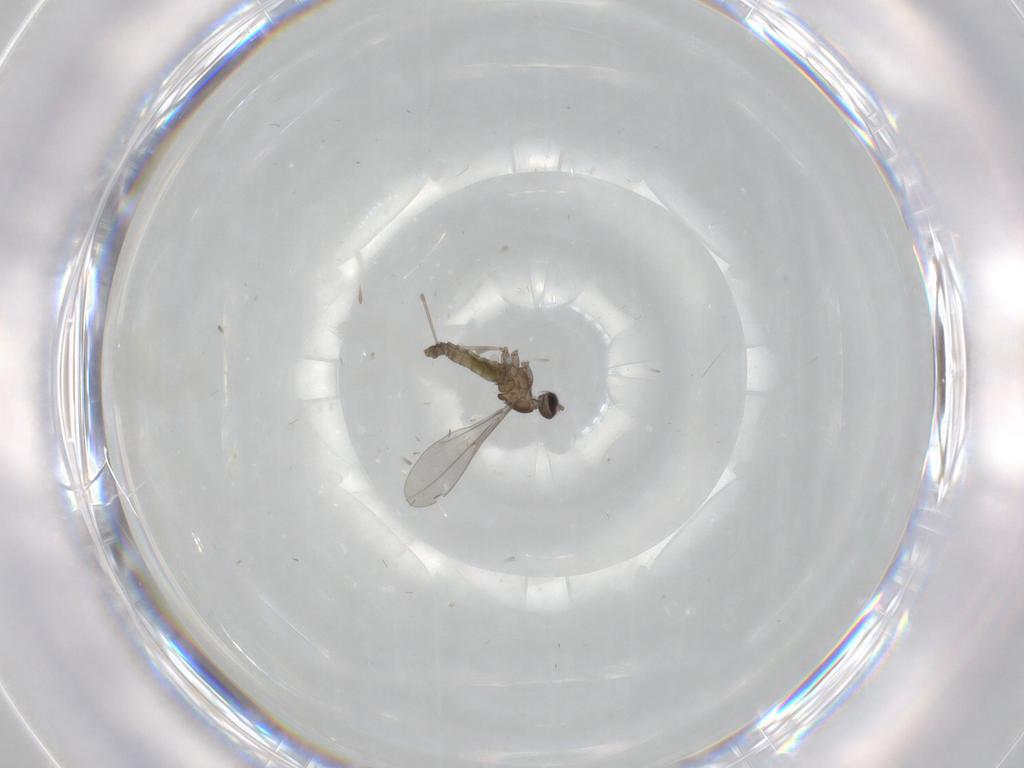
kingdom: Animalia
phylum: Arthropoda
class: Insecta
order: Diptera
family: Cecidomyiidae
